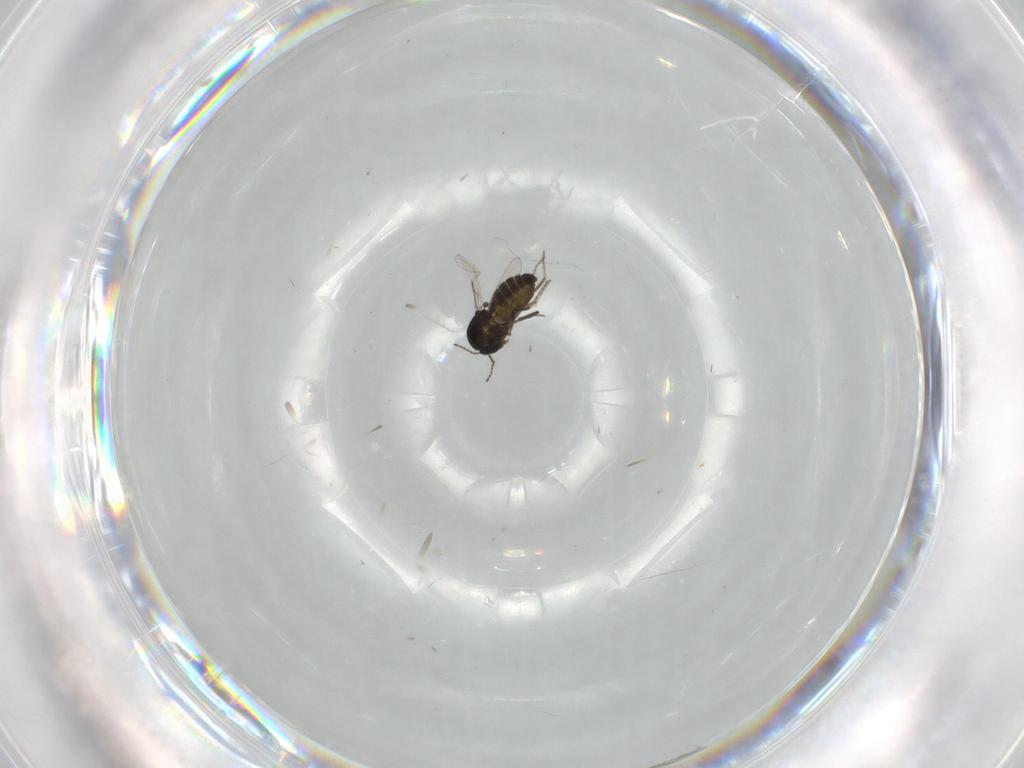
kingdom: Animalia
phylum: Arthropoda
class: Insecta
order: Diptera
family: Ceratopogonidae
